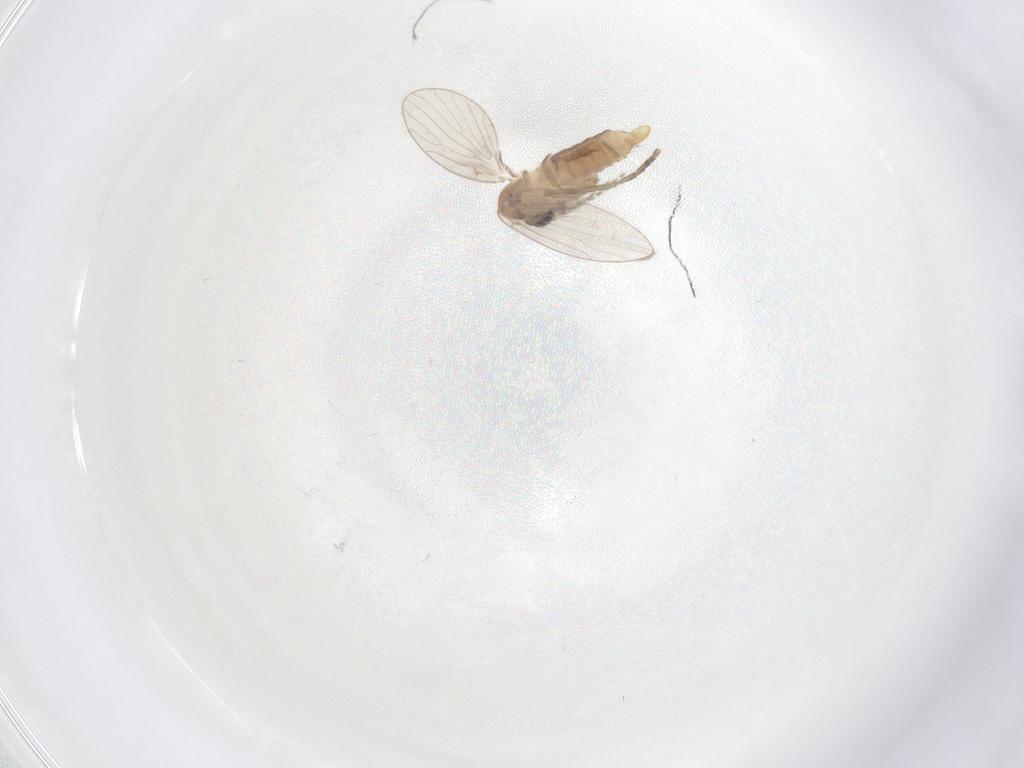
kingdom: Animalia
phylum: Arthropoda
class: Insecta
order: Diptera
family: Psychodidae
